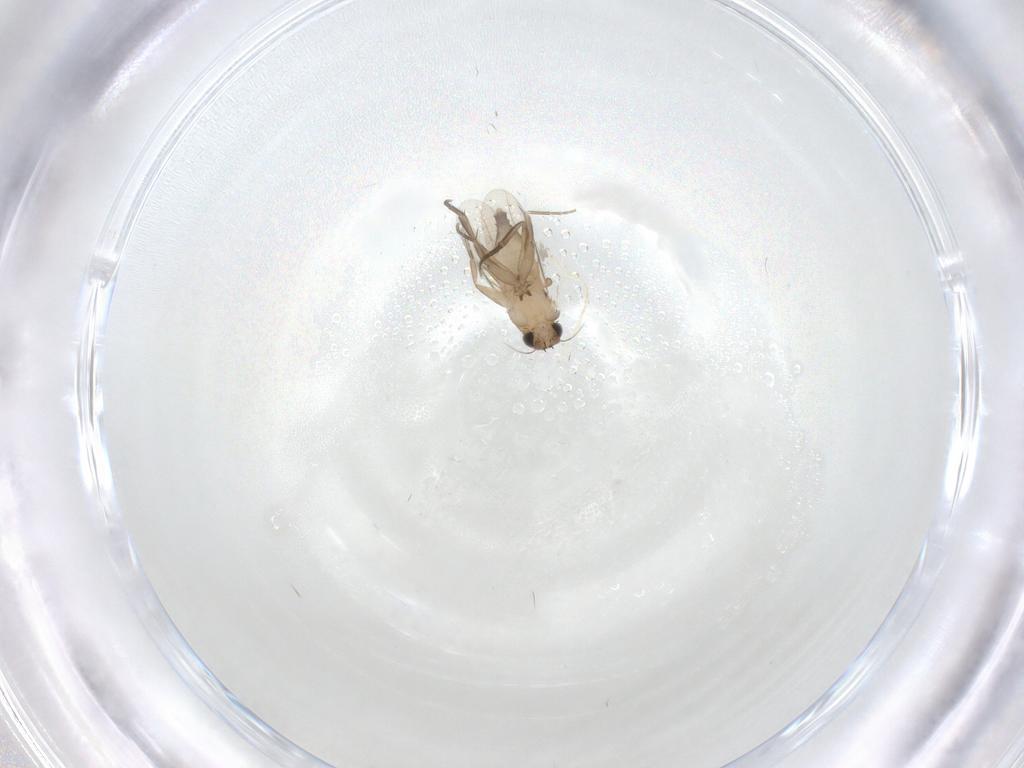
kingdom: Animalia
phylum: Arthropoda
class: Insecta
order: Diptera
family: Phoridae
